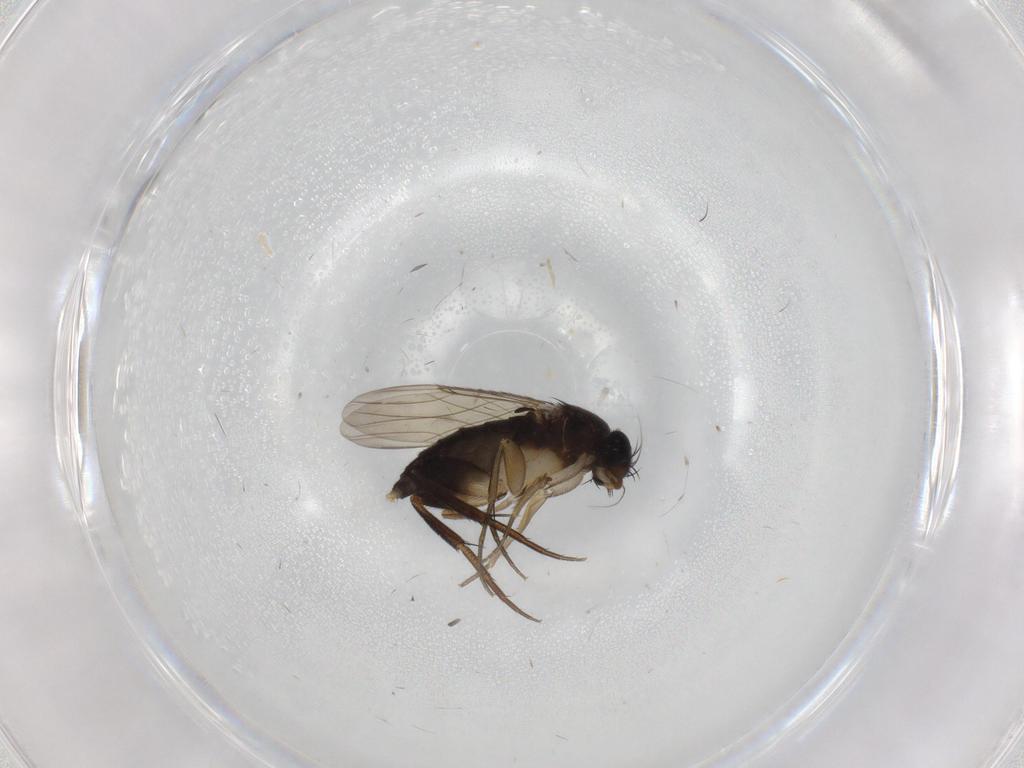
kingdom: Animalia
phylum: Arthropoda
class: Insecta
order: Diptera
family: Phoridae
